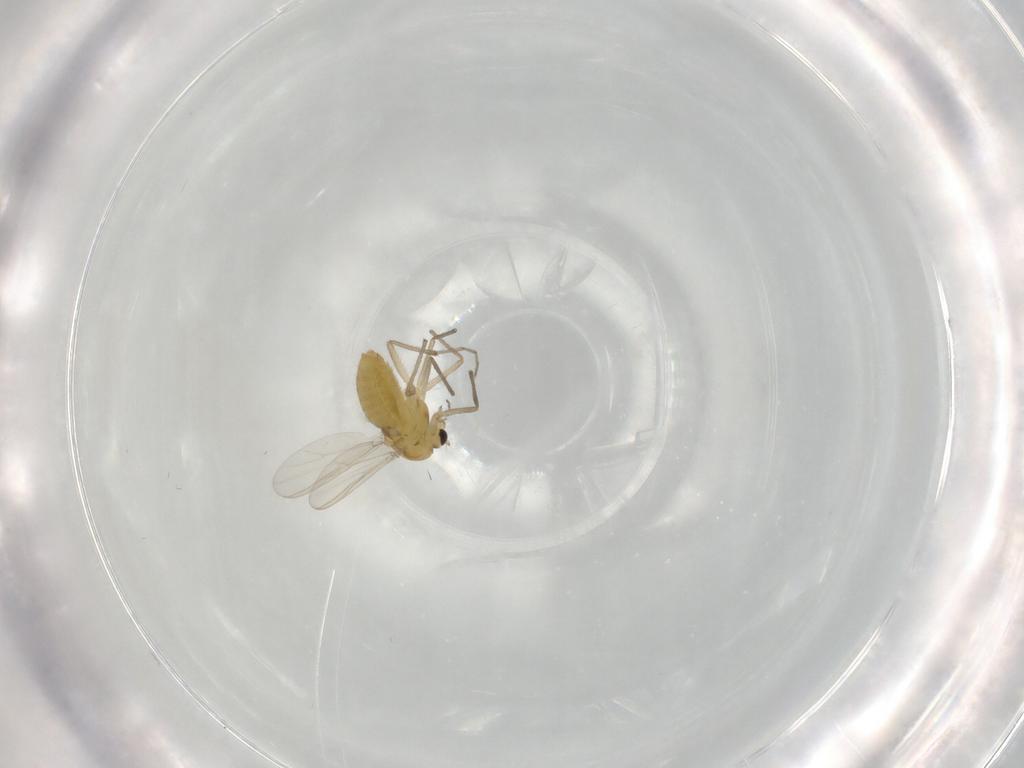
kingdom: Animalia
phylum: Arthropoda
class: Insecta
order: Diptera
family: Chironomidae
